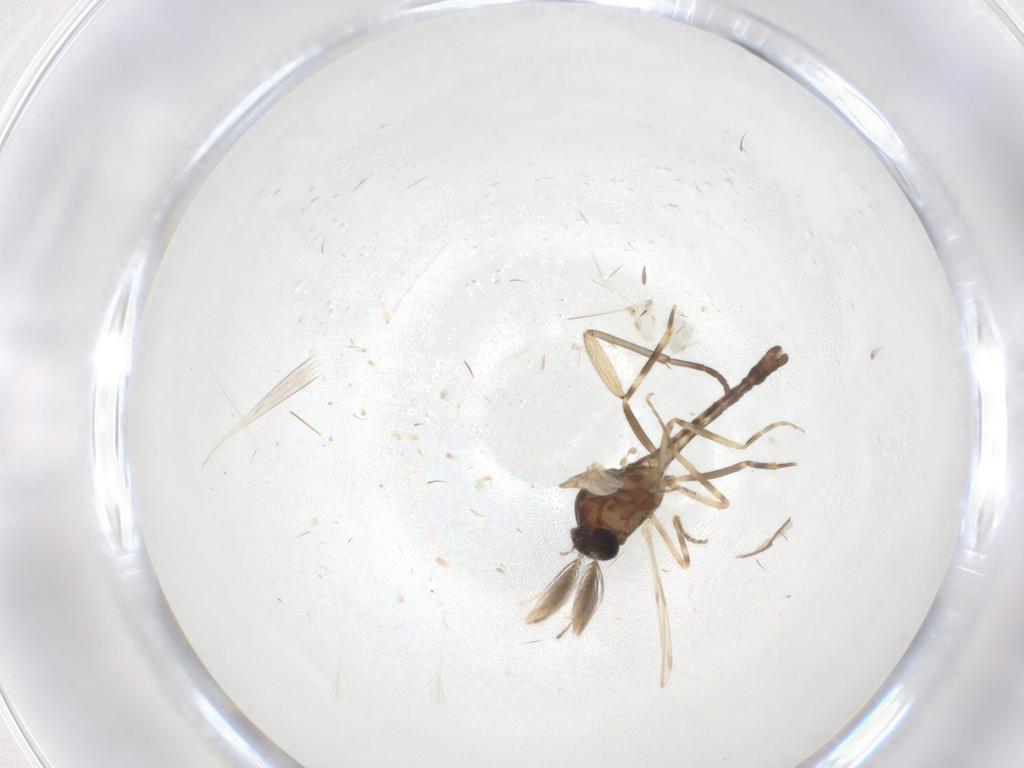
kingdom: Animalia
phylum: Arthropoda
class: Insecta
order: Diptera
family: Ceratopogonidae
